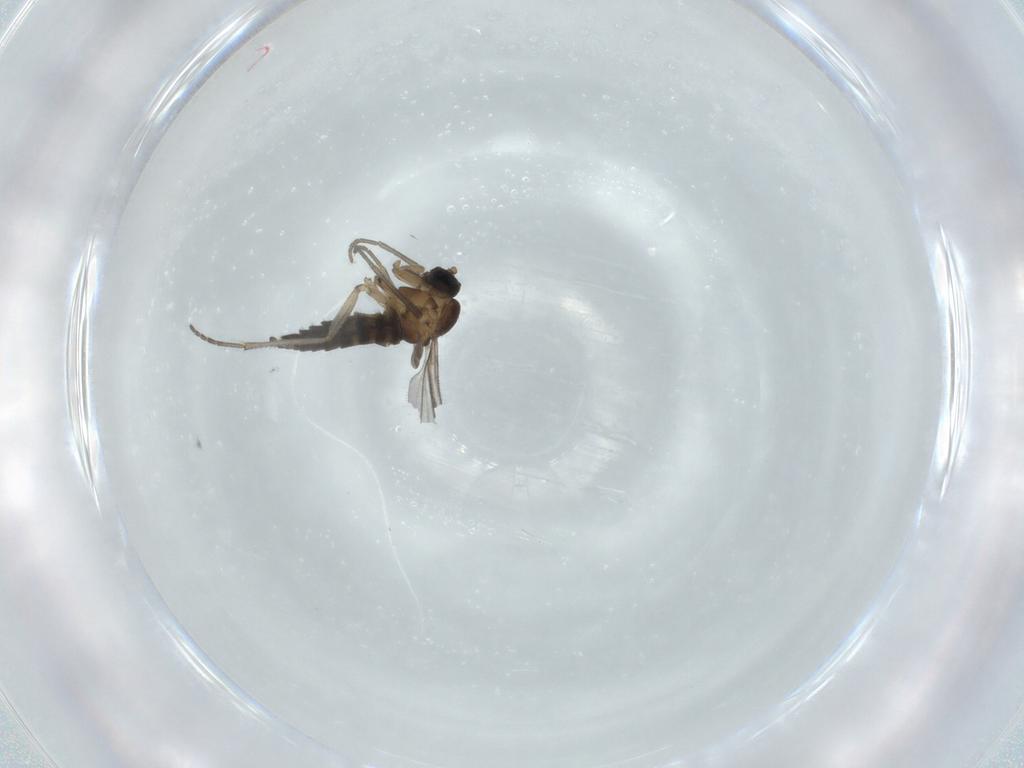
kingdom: Animalia
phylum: Arthropoda
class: Insecta
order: Diptera
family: Sciaridae
